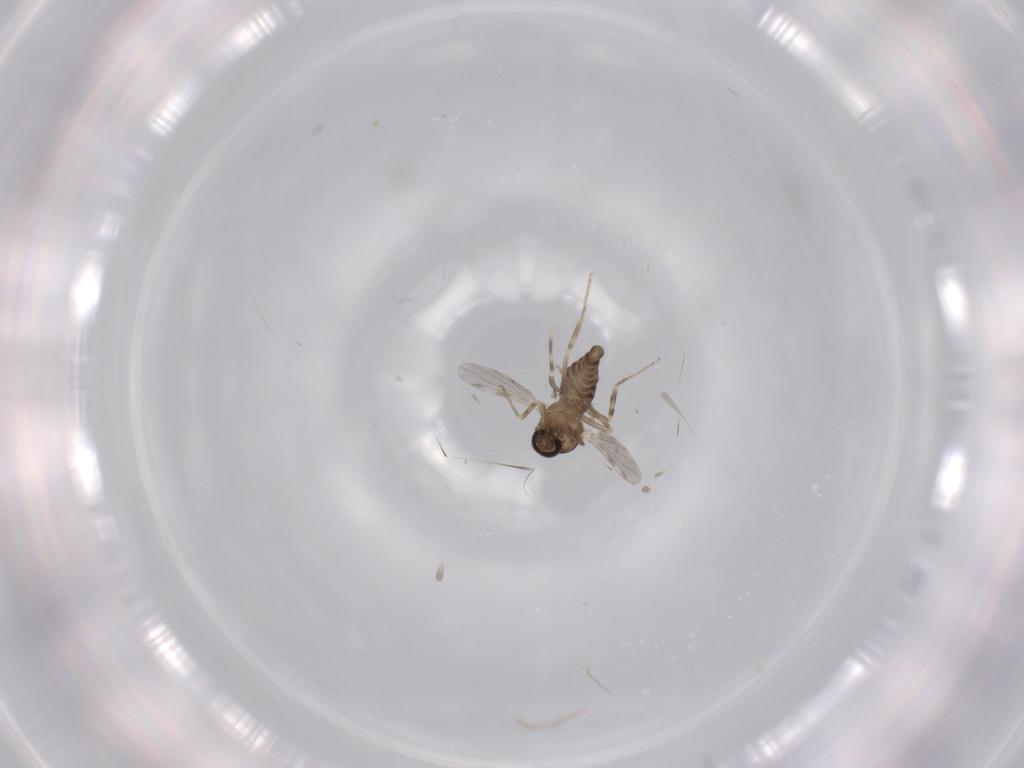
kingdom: Animalia
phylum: Arthropoda
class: Insecta
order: Diptera
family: Ceratopogonidae
